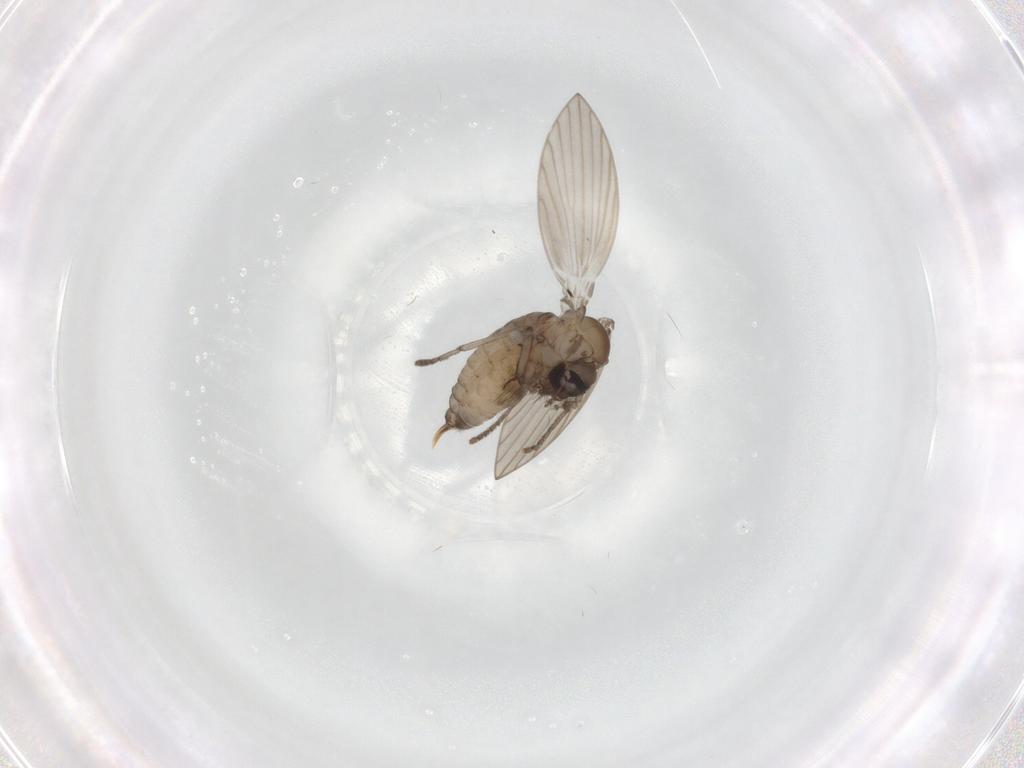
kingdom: Animalia
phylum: Arthropoda
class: Insecta
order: Diptera
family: Psychodidae
